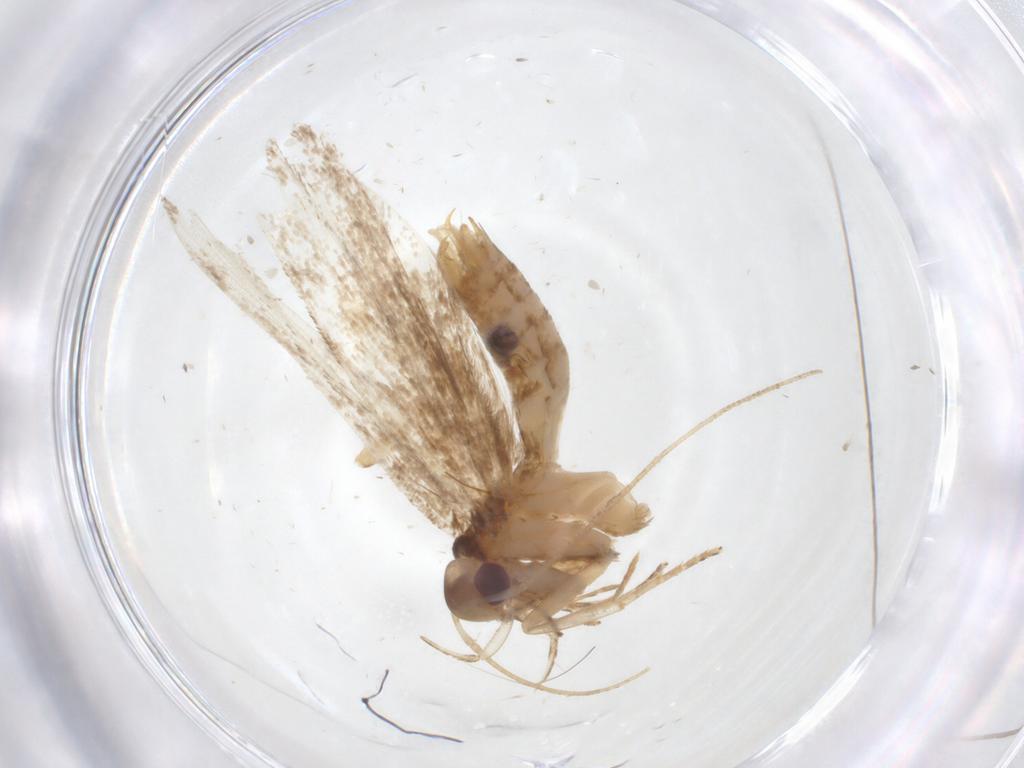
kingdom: Animalia
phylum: Arthropoda
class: Insecta
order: Lepidoptera
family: Gelechiidae
